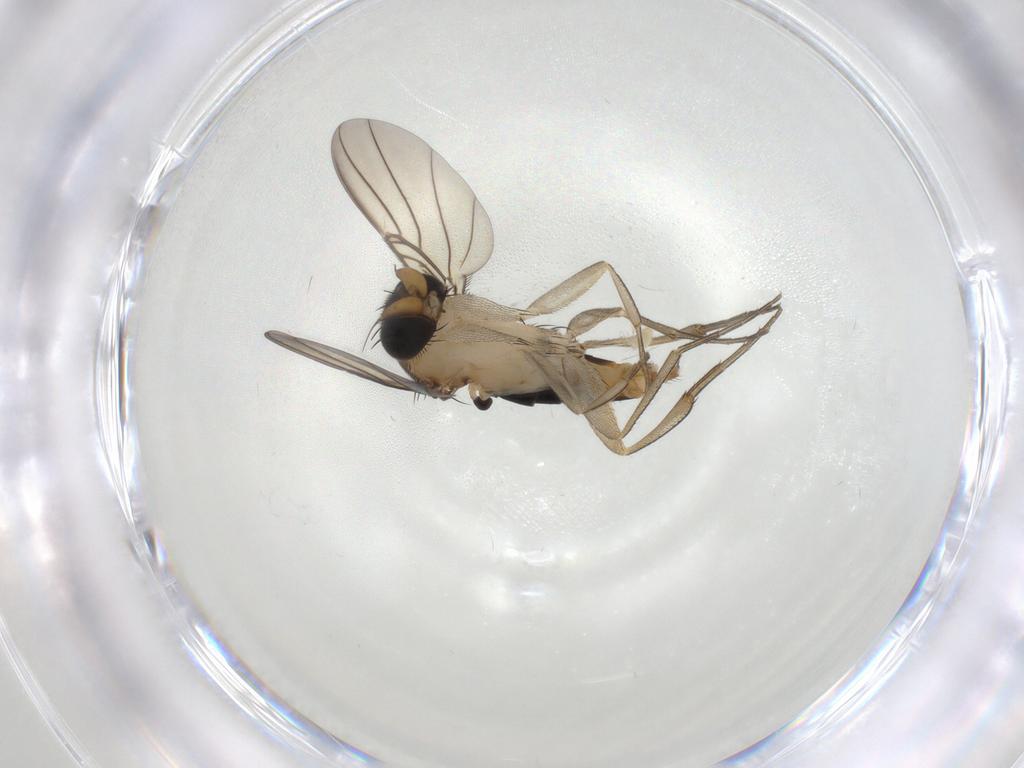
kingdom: Animalia
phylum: Arthropoda
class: Insecta
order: Diptera
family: Phoridae
